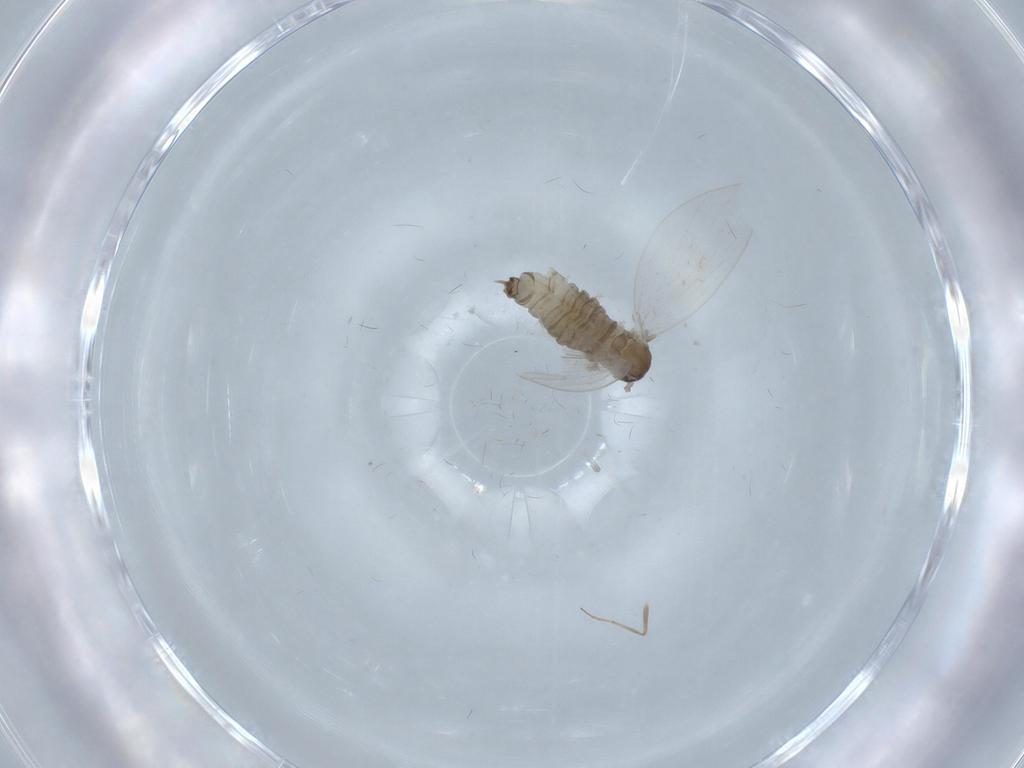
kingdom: Animalia
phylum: Arthropoda
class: Insecta
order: Diptera
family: Psychodidae
